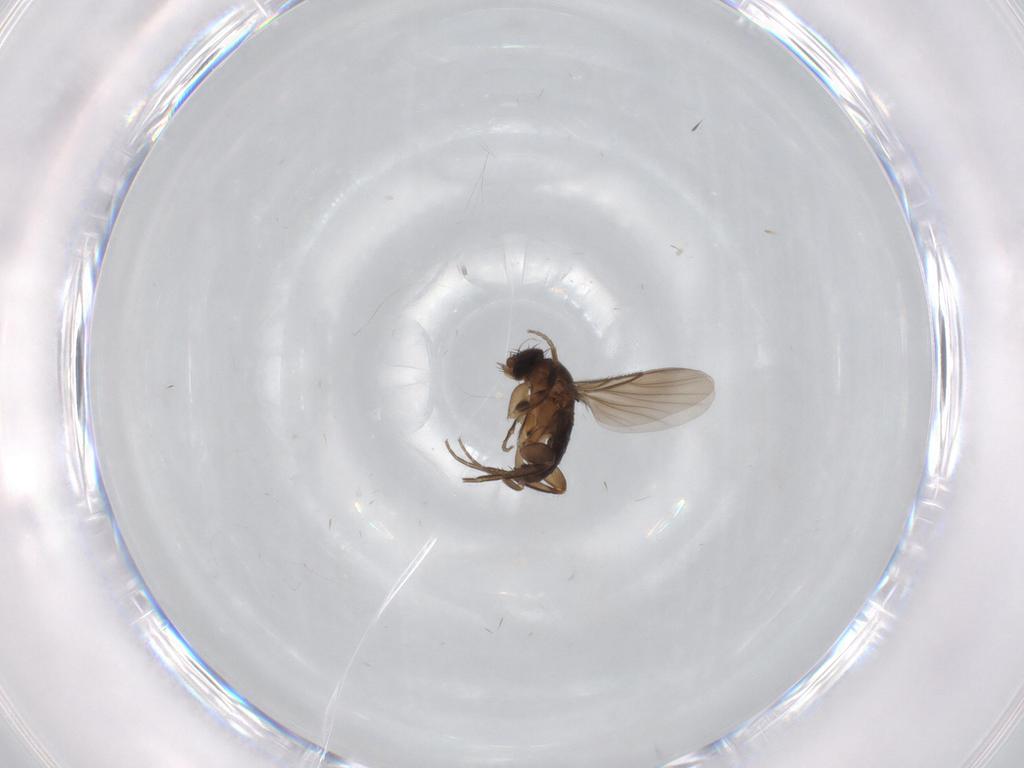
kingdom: Animalia
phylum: Arthropoda
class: Insecta
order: Diptera
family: Phoridae
